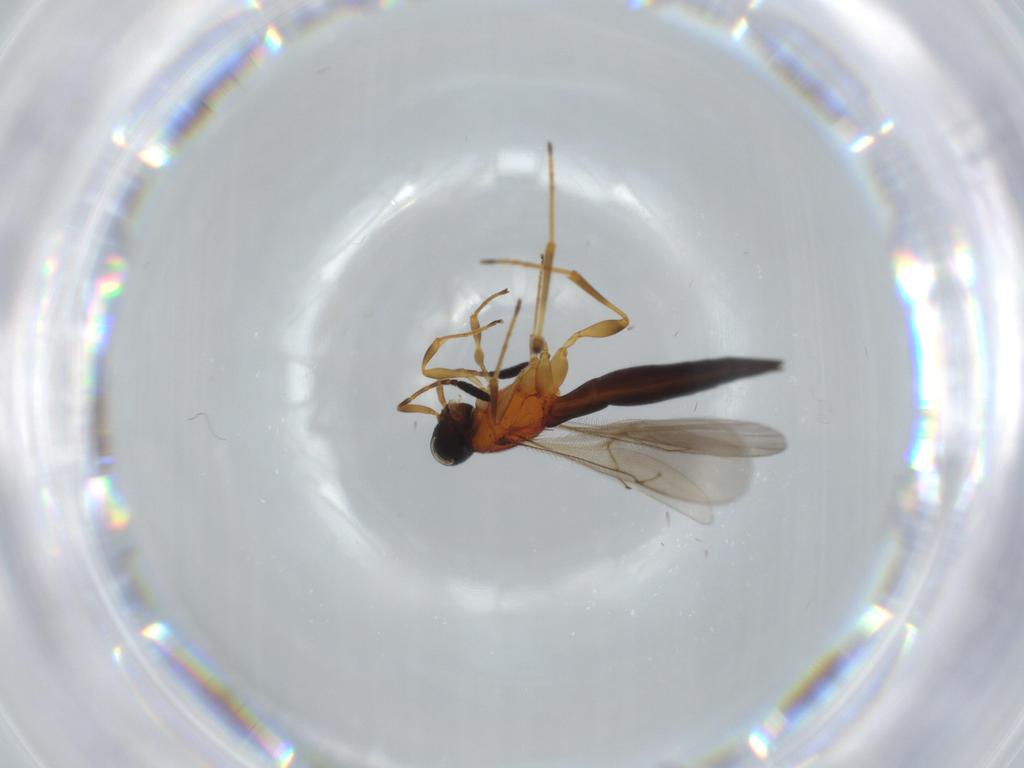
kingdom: Animalia
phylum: Arthropoda
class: Insecta
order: Hymenoptera
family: Scelionidae
